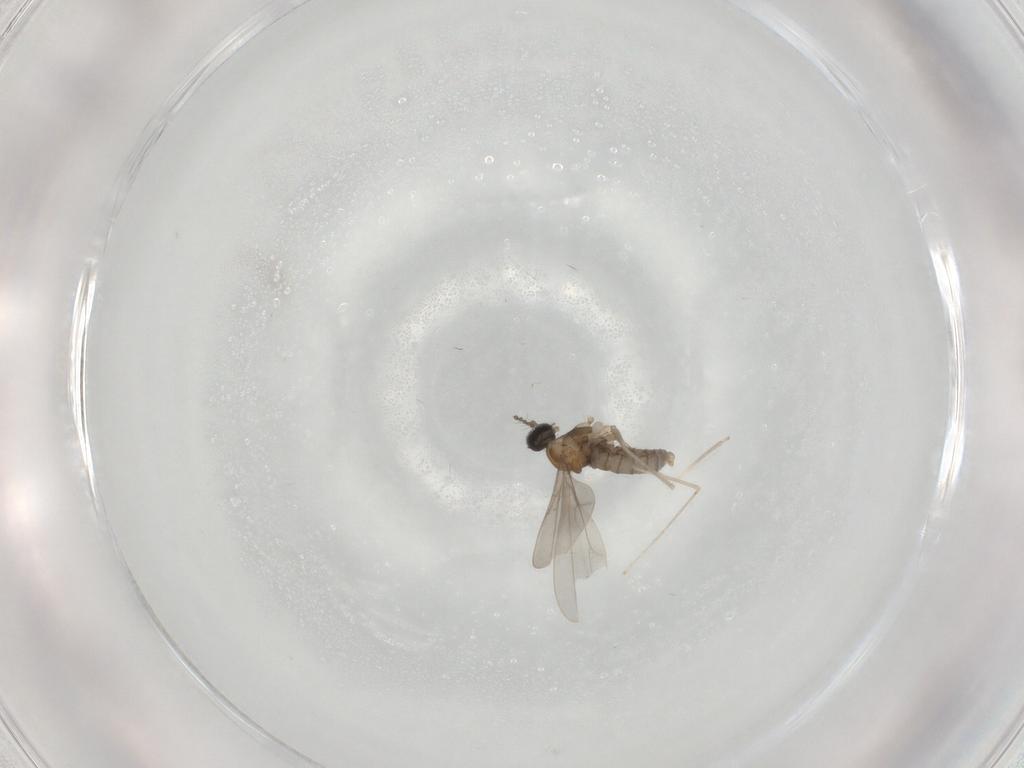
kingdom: Animalia
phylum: Arthropoda
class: Insecta
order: Diptera
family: Cecidomyiidae
